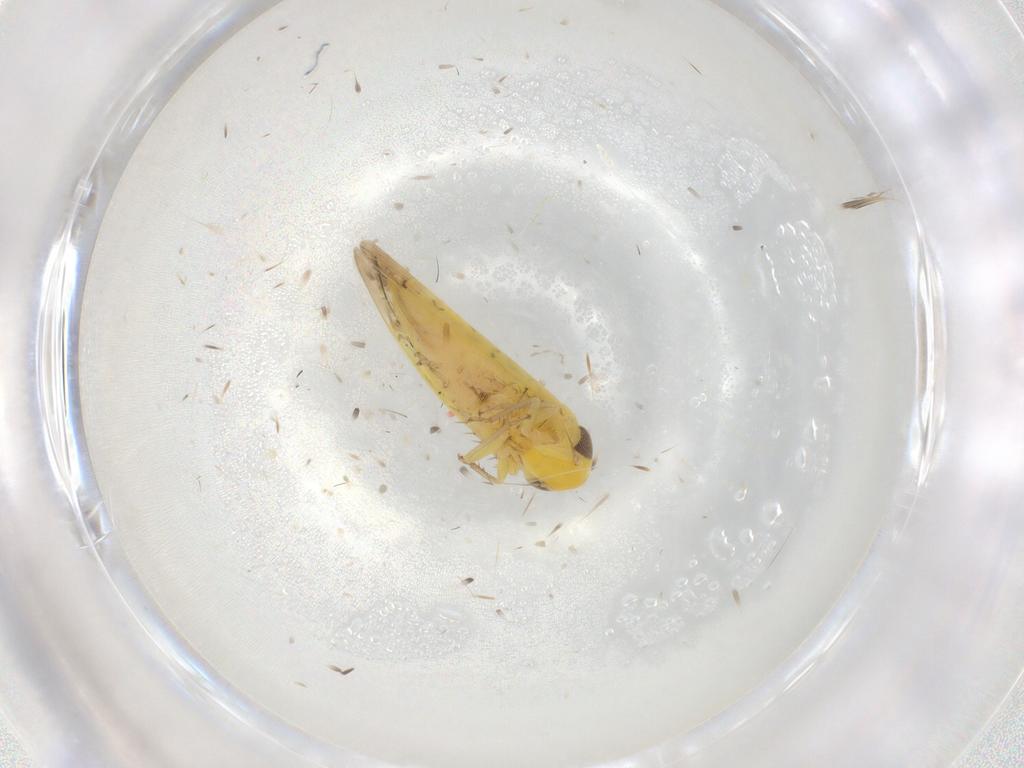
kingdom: Animalia
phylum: Arthropoda
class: Insecta
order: Hemiptera
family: Cicadellidae
